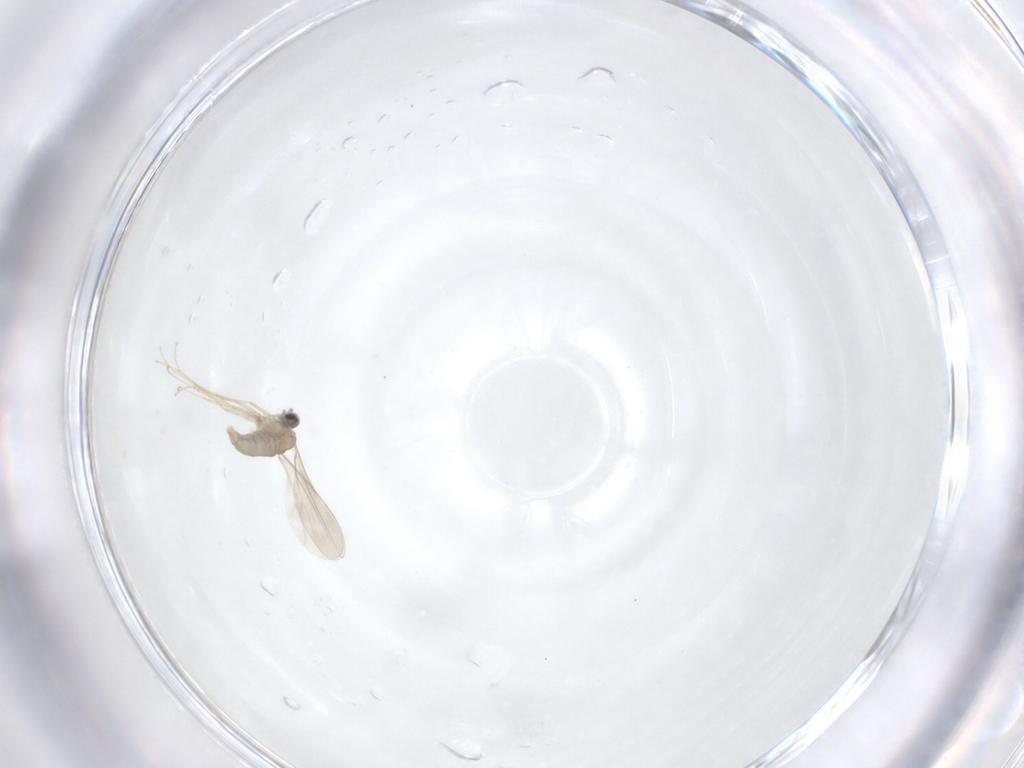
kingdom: Animalia
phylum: Arthropoda
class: Insecta
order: Diptera
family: Cecidomyiidae
